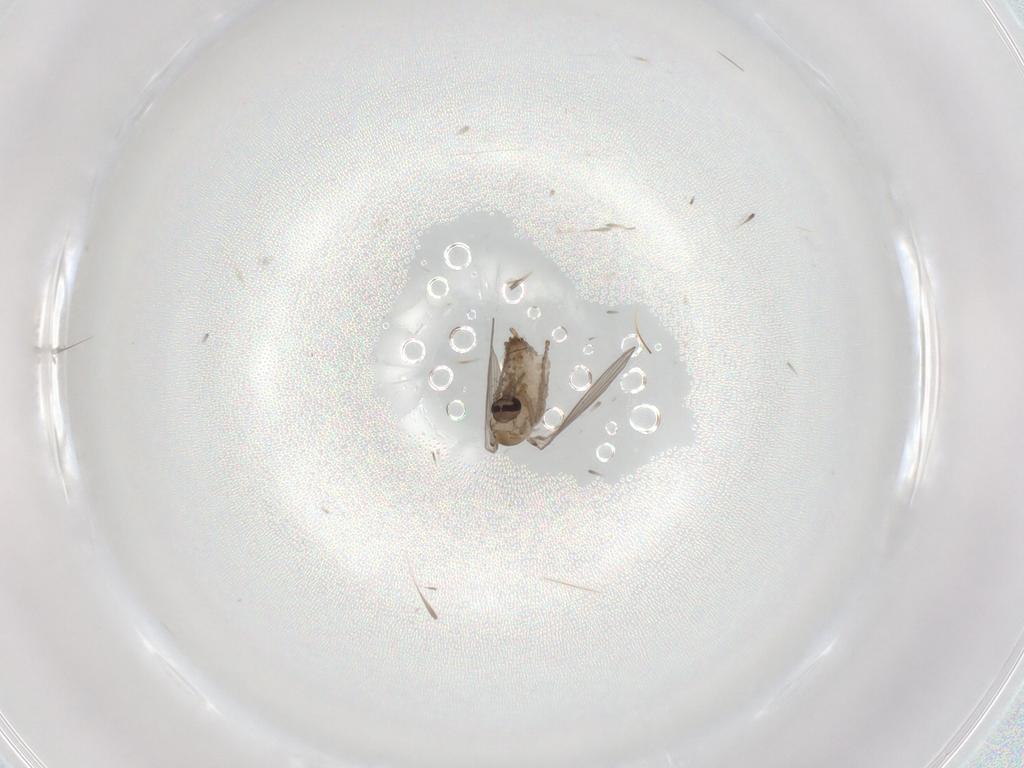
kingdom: Animalia
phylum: Arthropoda
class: Insecta
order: Diptera
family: Psychodidae
